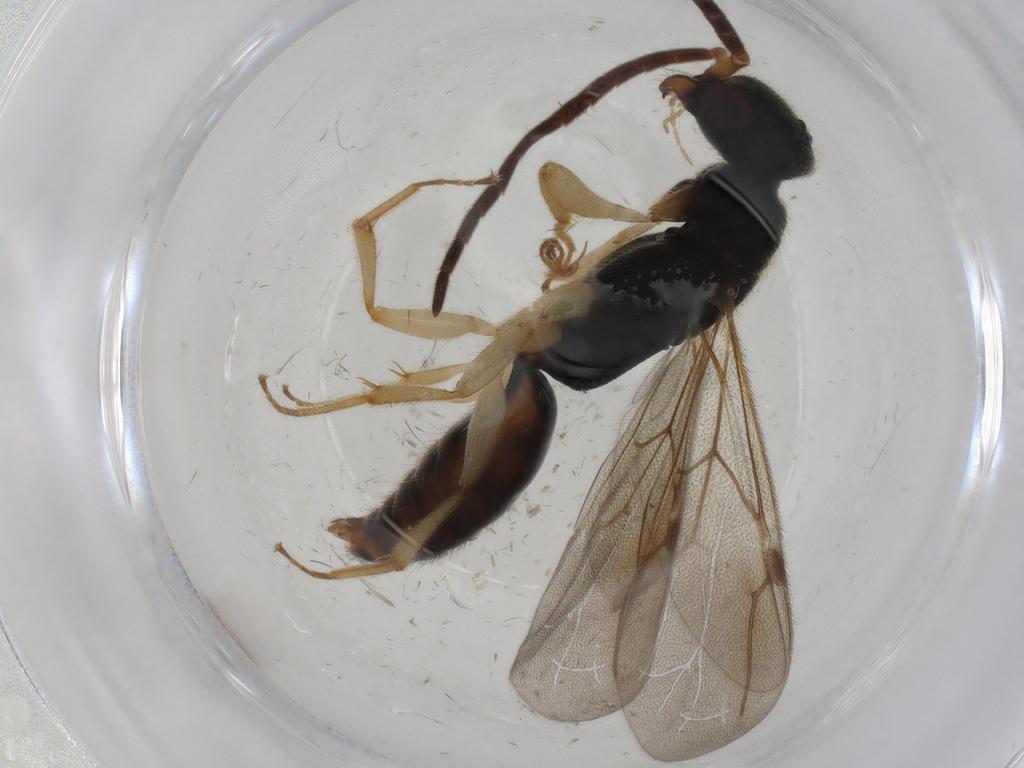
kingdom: Animalia
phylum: Arthropoda
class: Insecta
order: Hymenoptera
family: Bethylidae
